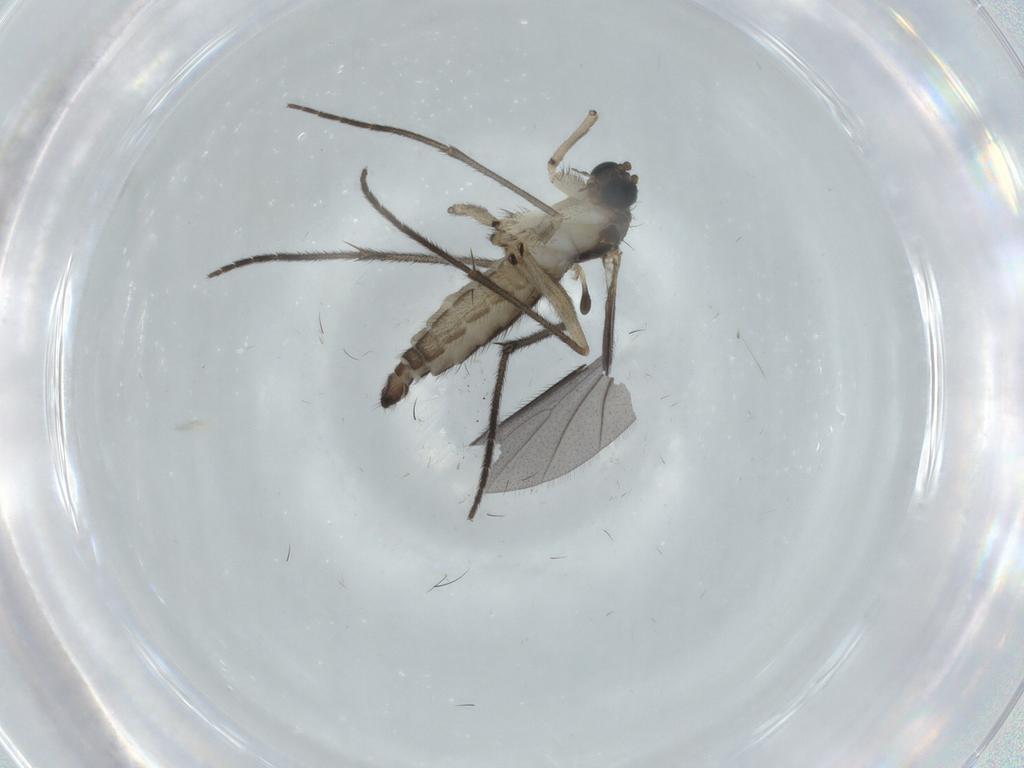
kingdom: Animalia
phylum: Arthropoda
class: Insecta
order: Diptera
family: Sciaridae
